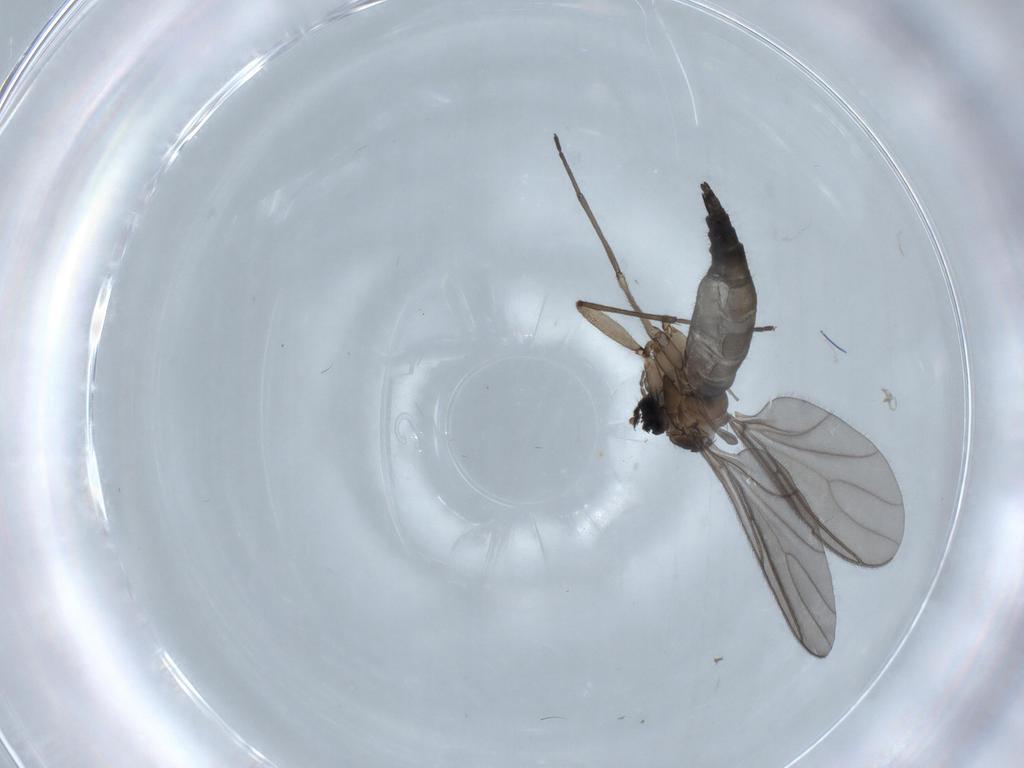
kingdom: Animalia
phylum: Arthropoda
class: Insecta
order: Diptera
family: Sciaridae
